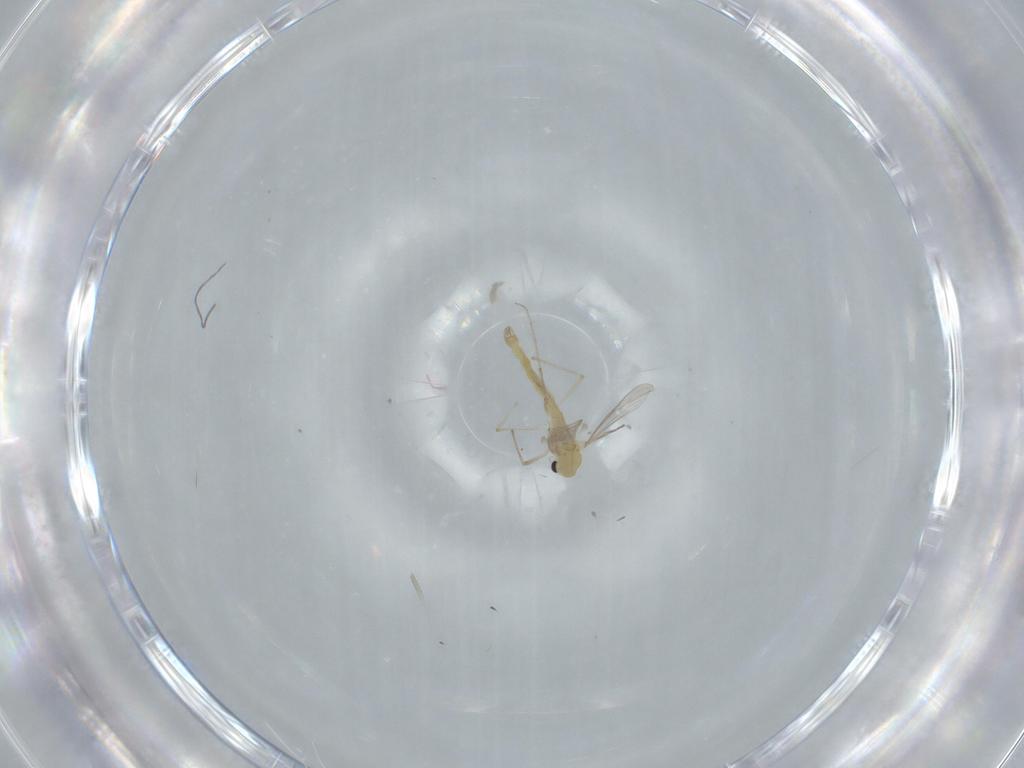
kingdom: Animalia
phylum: Arthropoda
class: Insecta
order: Diptera
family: Chironomidae
